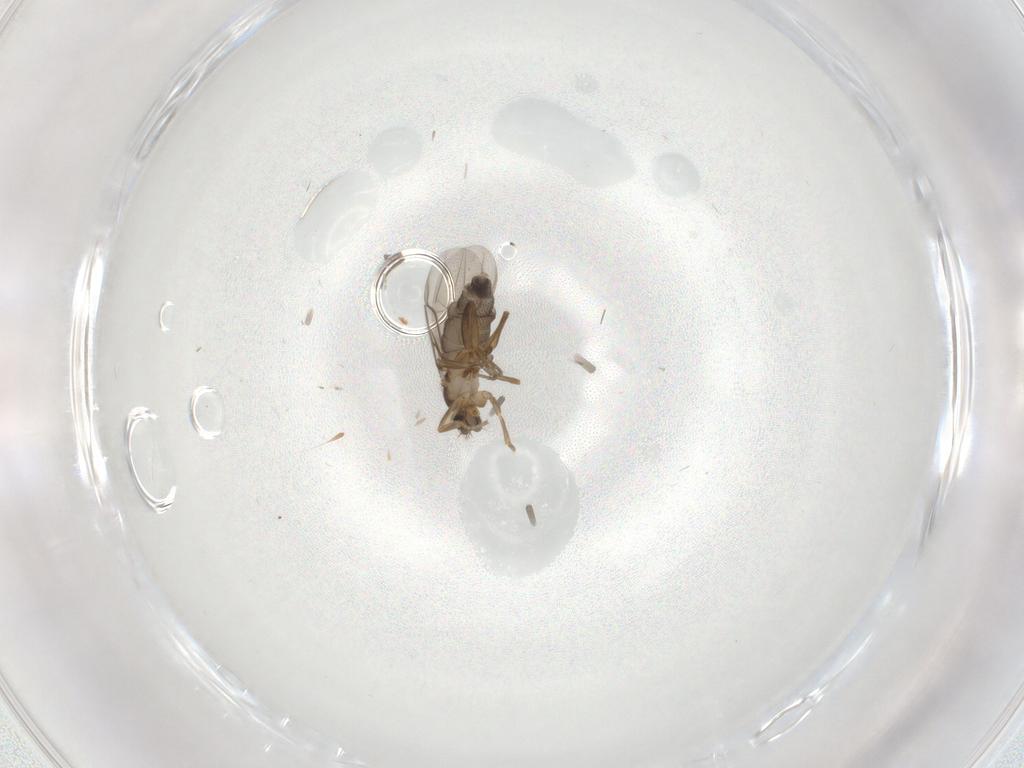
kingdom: Animalia
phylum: Arthropoda
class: Insecta
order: Diptera
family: Phoridae
